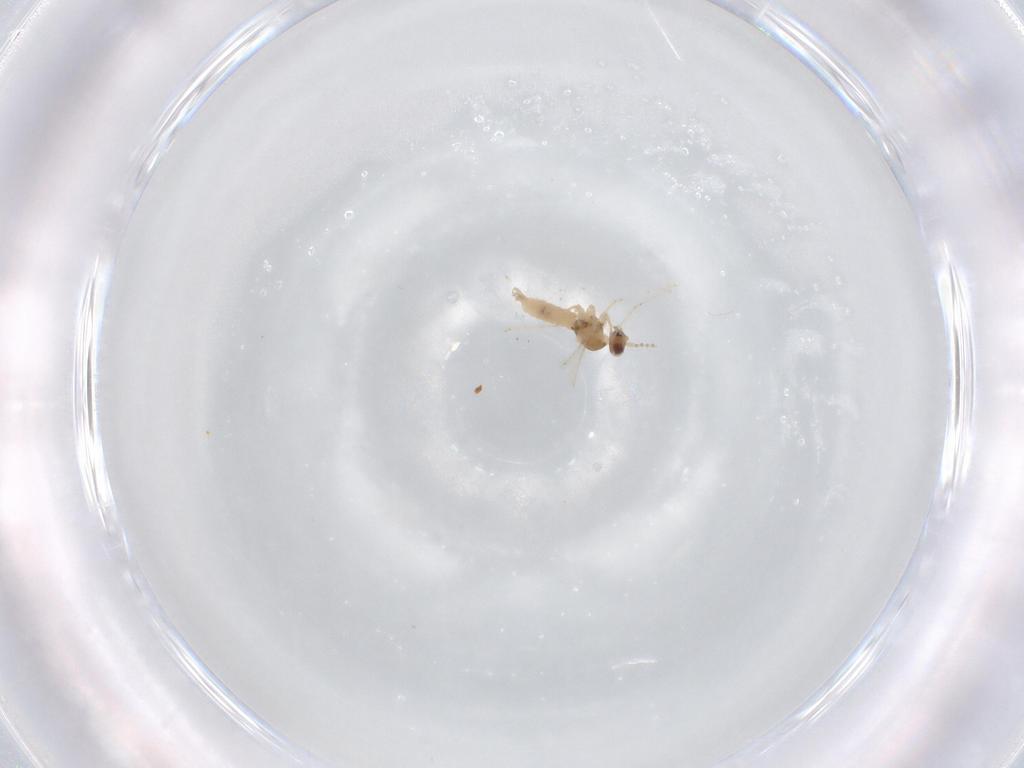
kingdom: Animalia
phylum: Arthropoda
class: Insecta
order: Diptera
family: Cecidomyiidae
